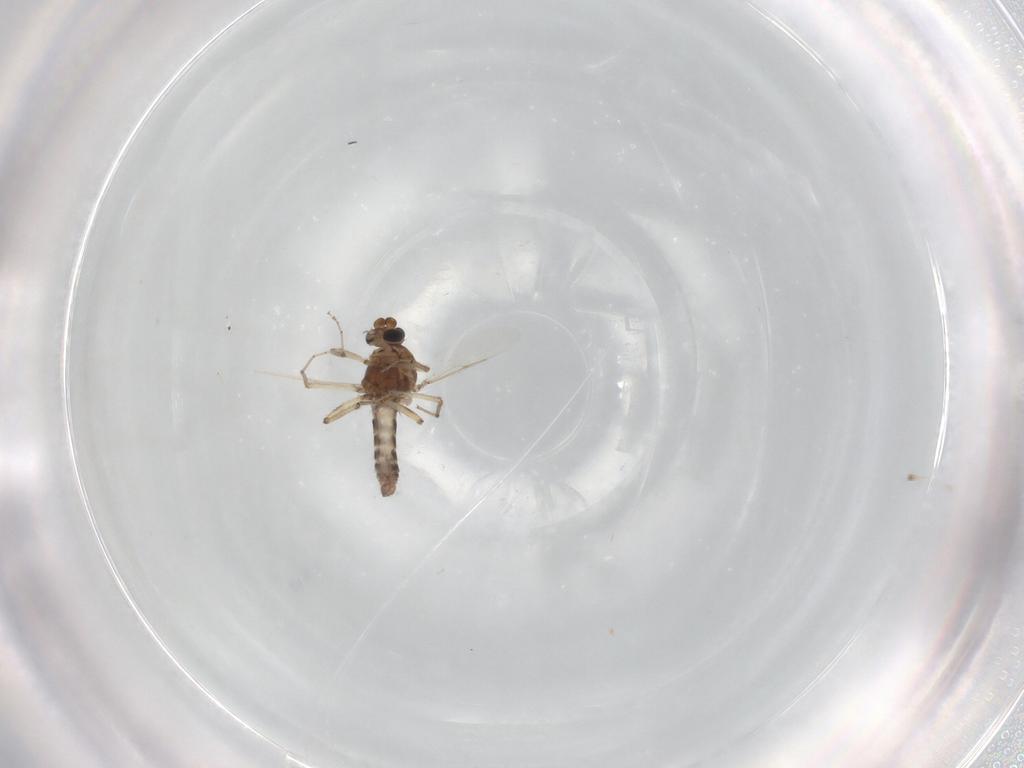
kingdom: Animalia
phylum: Arthropoda
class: Insecta
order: Diptera
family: Ceratopogonidae
